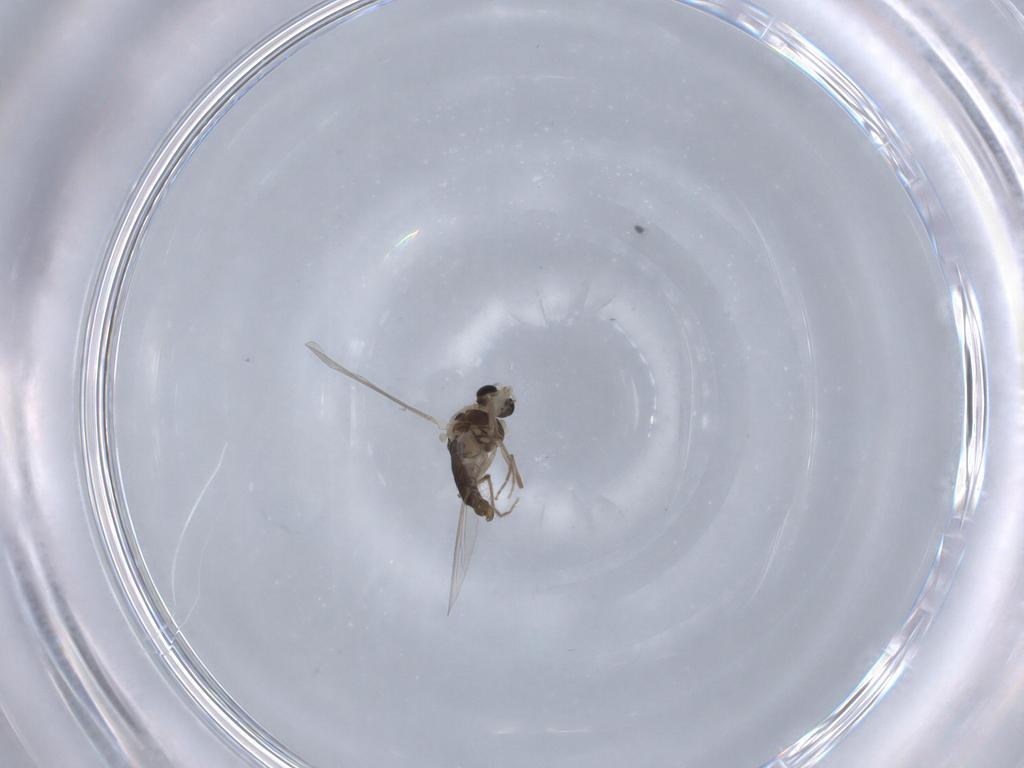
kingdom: Animalia
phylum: Arthropoda
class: Insecta
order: Diptera
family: Chironomidae
